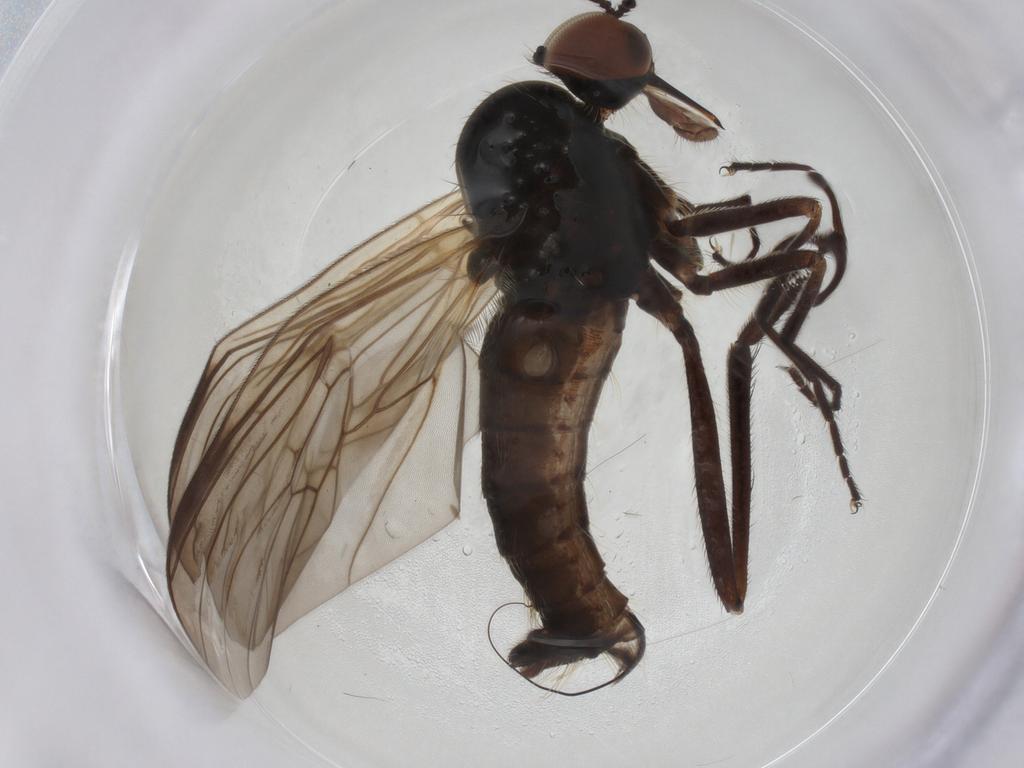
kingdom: Animalia
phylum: Arthropoda
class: Insecta
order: Diptera
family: Empididae
